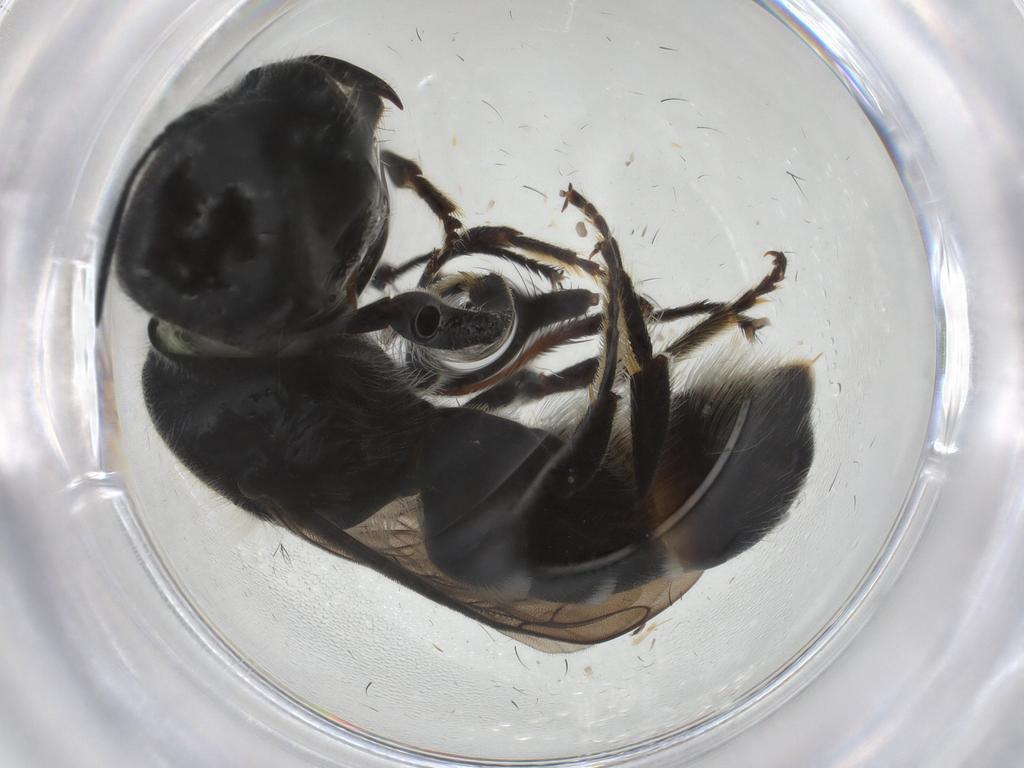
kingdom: Animalia
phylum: Arthropoda
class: Insecta
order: Hymenoptera
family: Megachilidae
